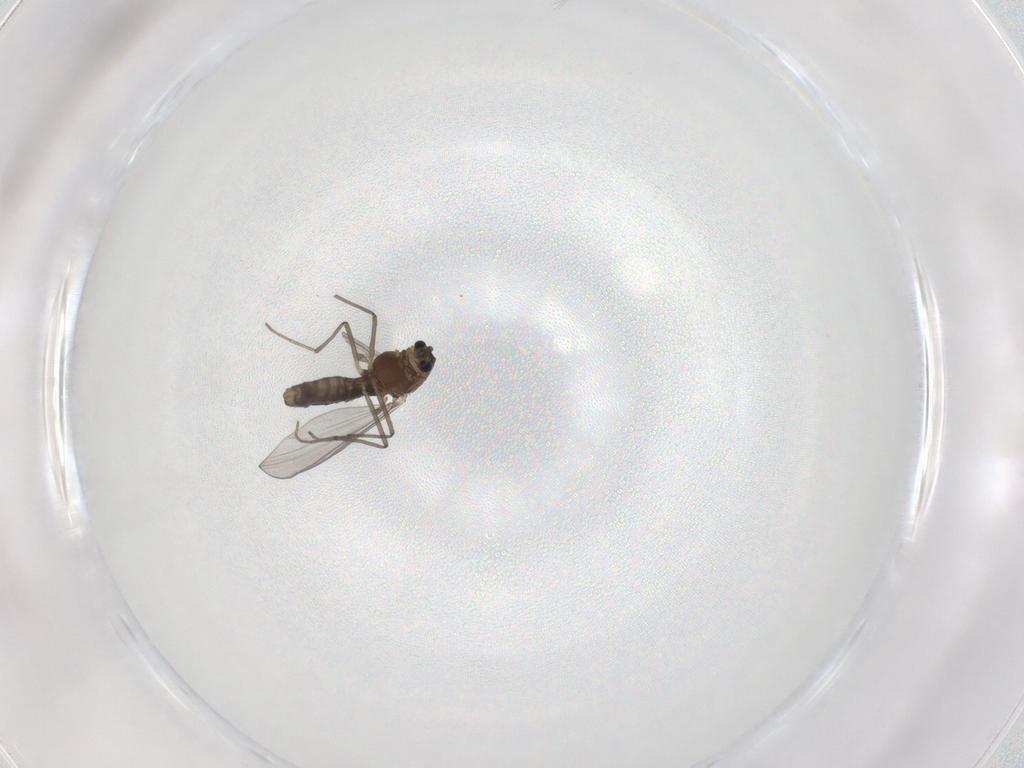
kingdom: Animalia
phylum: Arthropoda
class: Insecta
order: Diptera
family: Chironomidae
